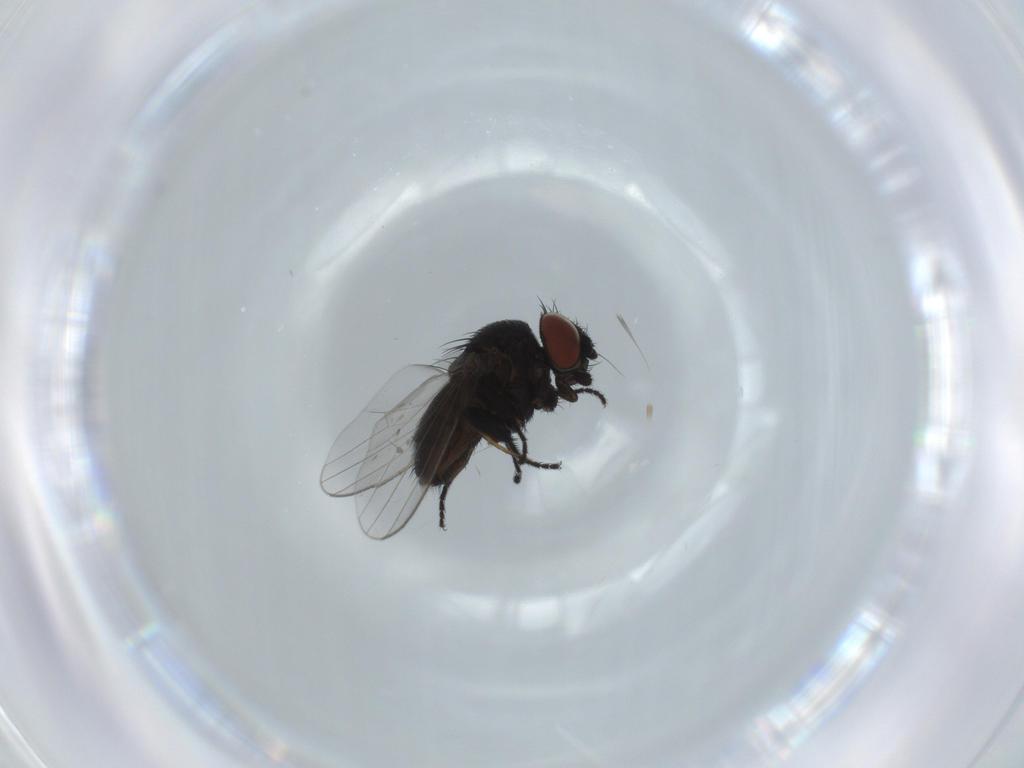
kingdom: Animalia
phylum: Arthropoda
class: Insecta
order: Diptera
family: Milichiidae
